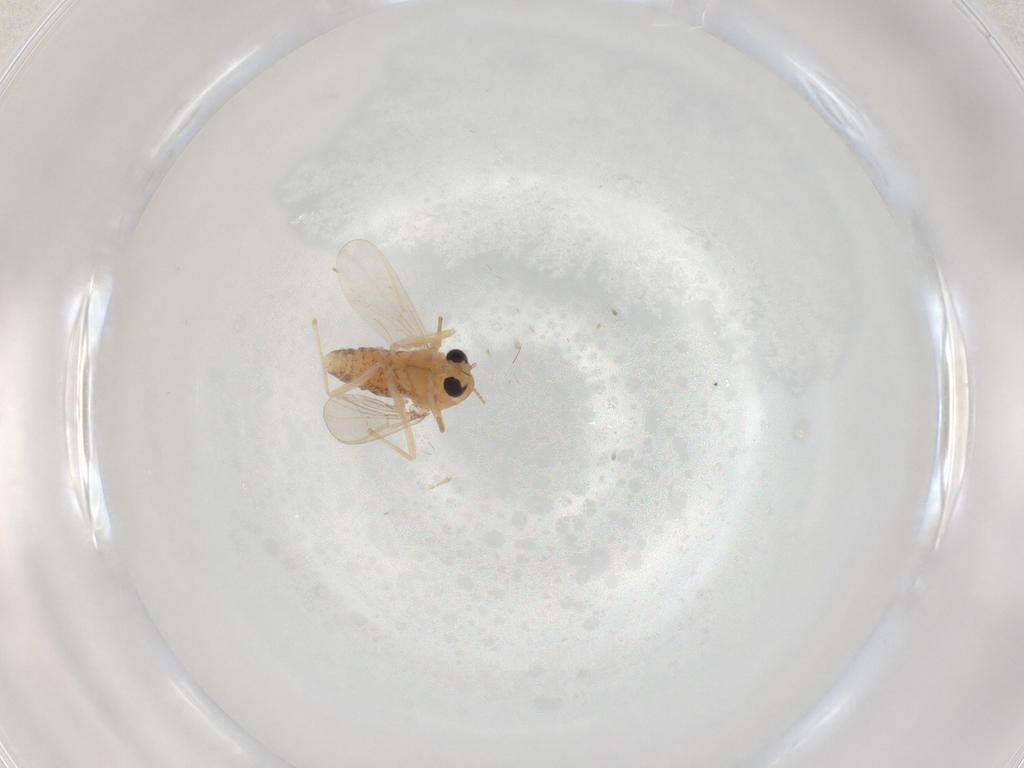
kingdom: Animalia
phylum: Arthropoda
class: Insecta
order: Diptera
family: Chironomidae
